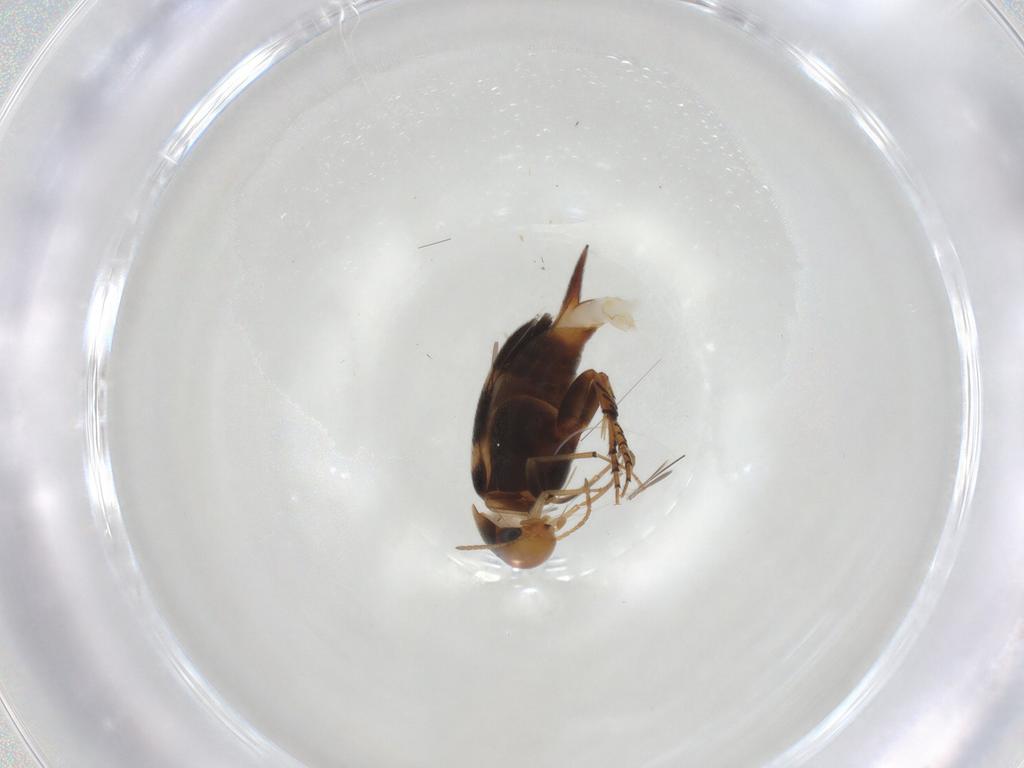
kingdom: Animalia
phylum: Arthropoda
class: Insecta
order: Coleoptera
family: Mordellidae
